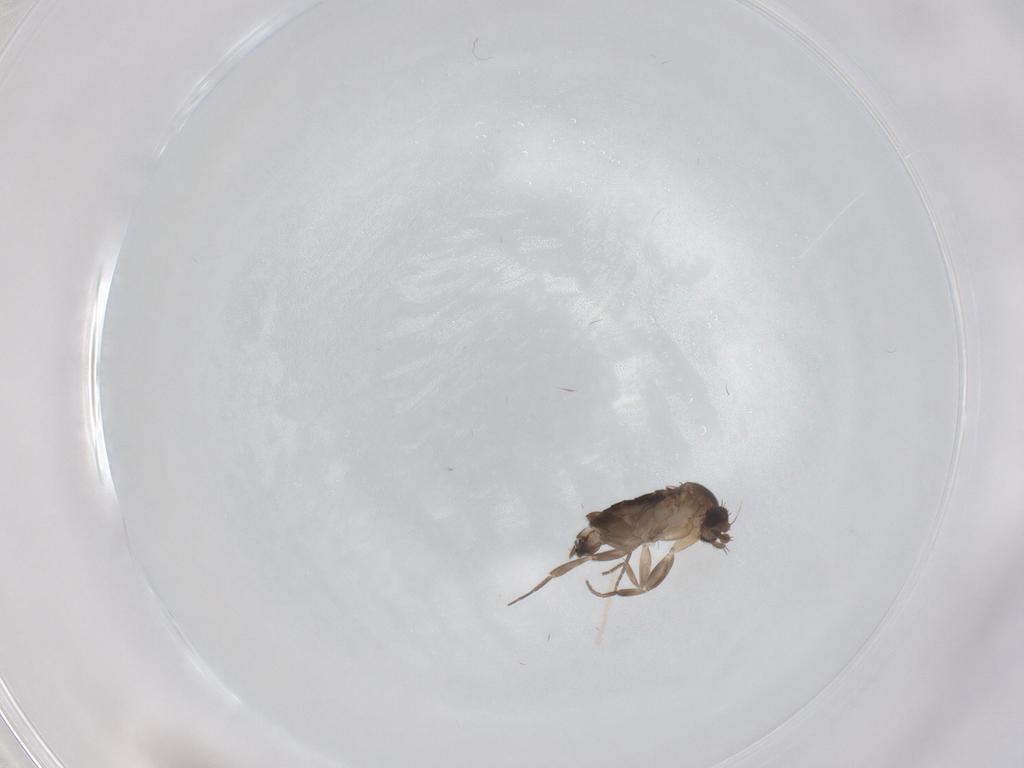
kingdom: Animalia
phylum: Arthropoda
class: Insecta
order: Diptera
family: Phoridae
